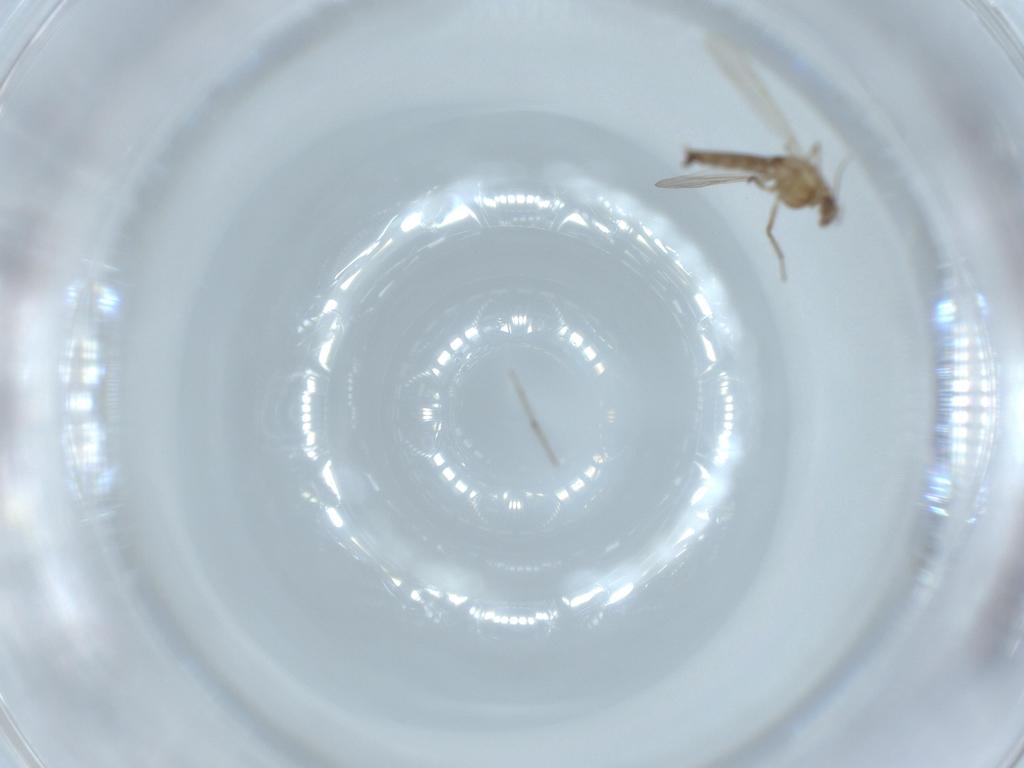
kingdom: Animalia
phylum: Arthropoda
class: Insecta
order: Diptera
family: Chironomidae
